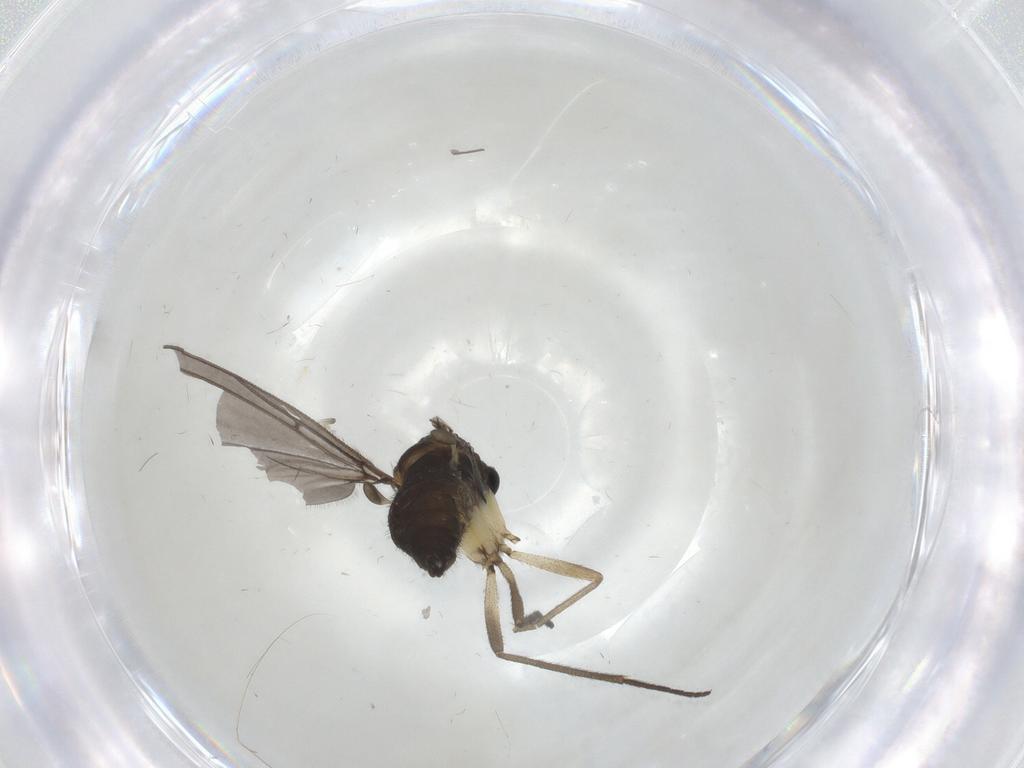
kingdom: Animalia
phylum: Arthropoda
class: Insecta
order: Diptera
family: Sciaridae
